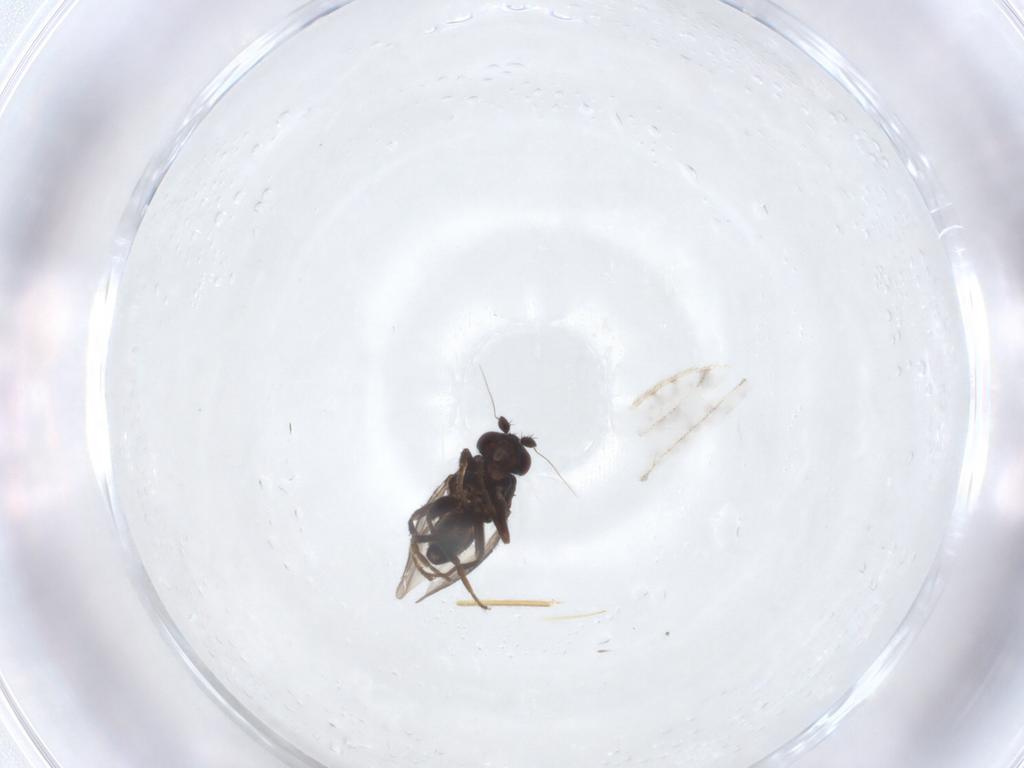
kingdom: Animalia
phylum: Arthropoda
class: Insecta
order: Diptera
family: Sphaeroceridae
